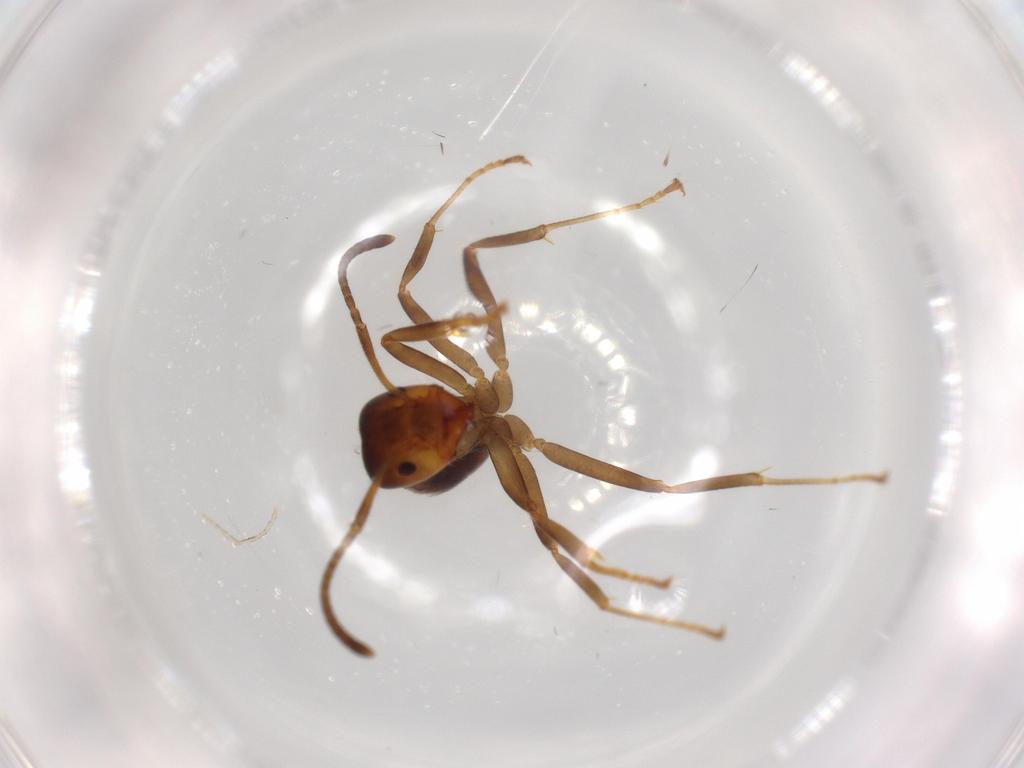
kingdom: Animalia
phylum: Arthropoda
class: Insecta
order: Hymenoptera
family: Formicidae
